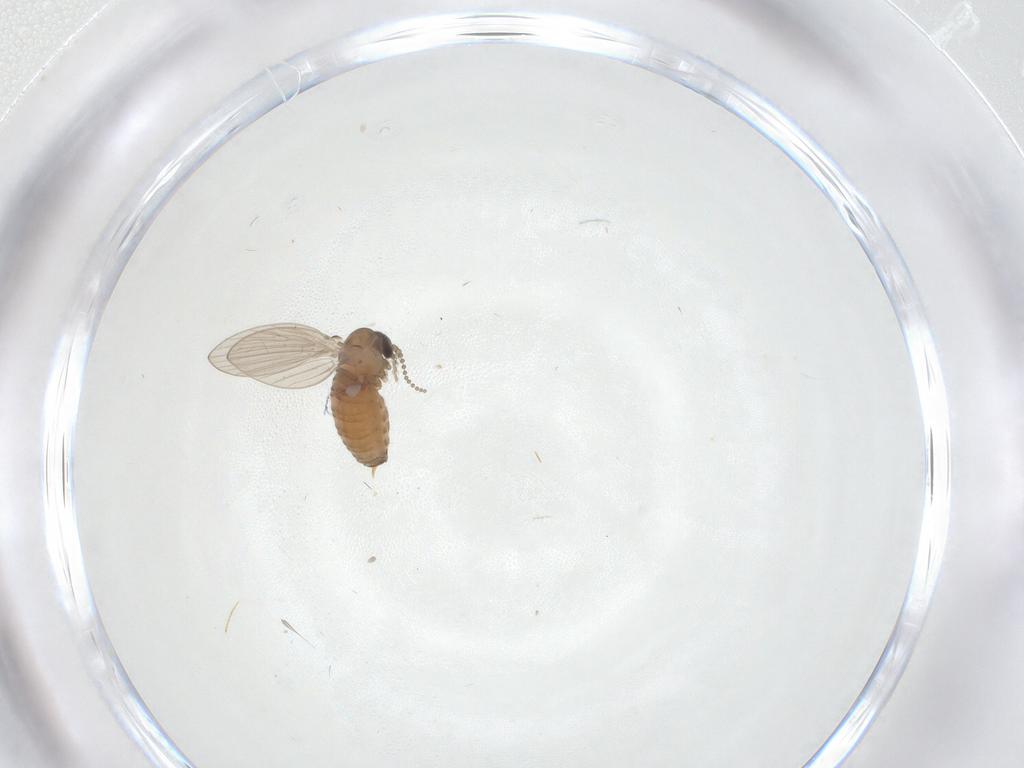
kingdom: Animalia
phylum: Arthropoda
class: Insecta
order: Diptera
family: Psychodidae
